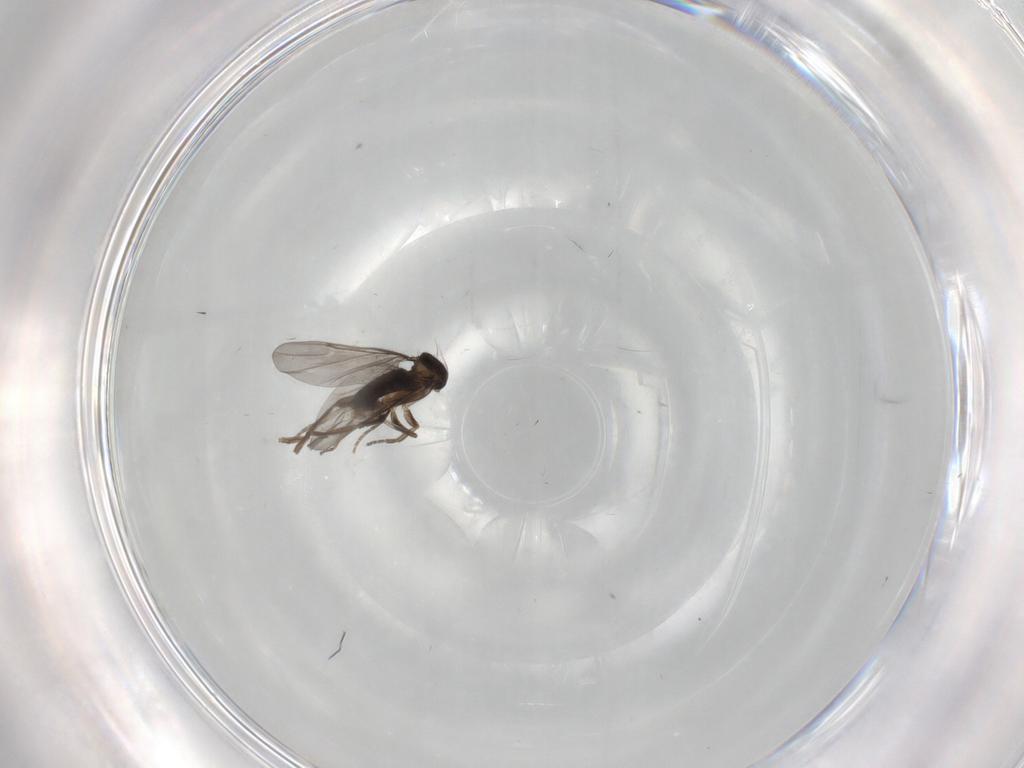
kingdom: Animalia
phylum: Arthropoda
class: Insecta
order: Diptera
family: Phoridae
